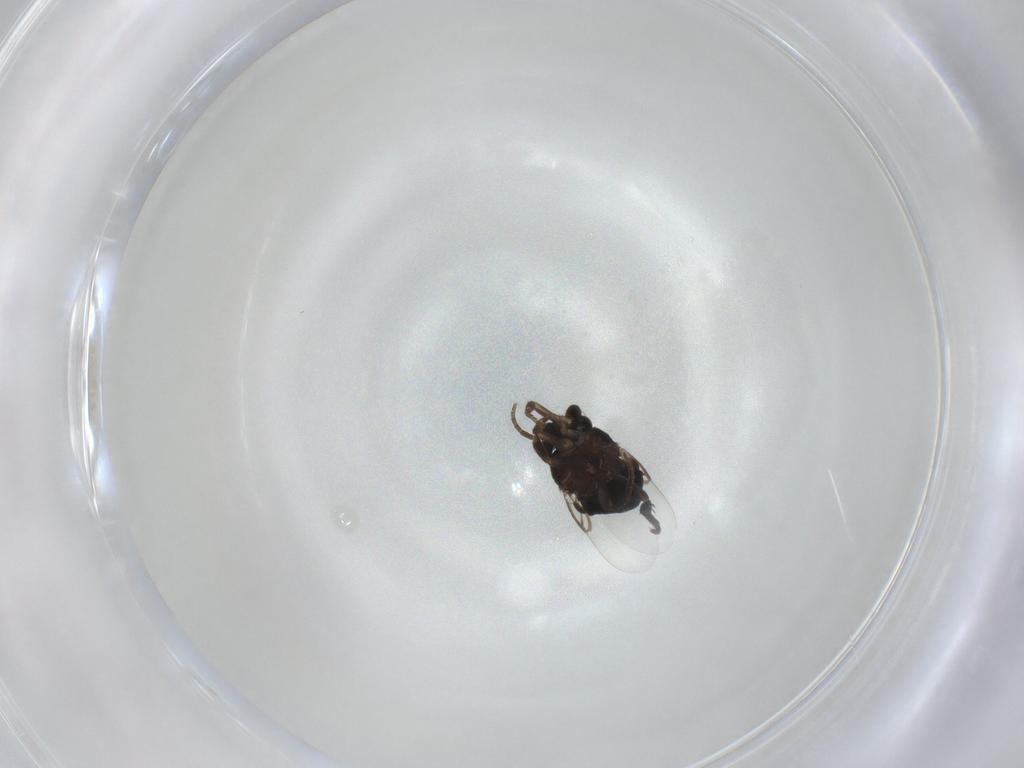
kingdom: Animalia
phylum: Arthropoda
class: Insecta
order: Diptera
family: Phoridae
